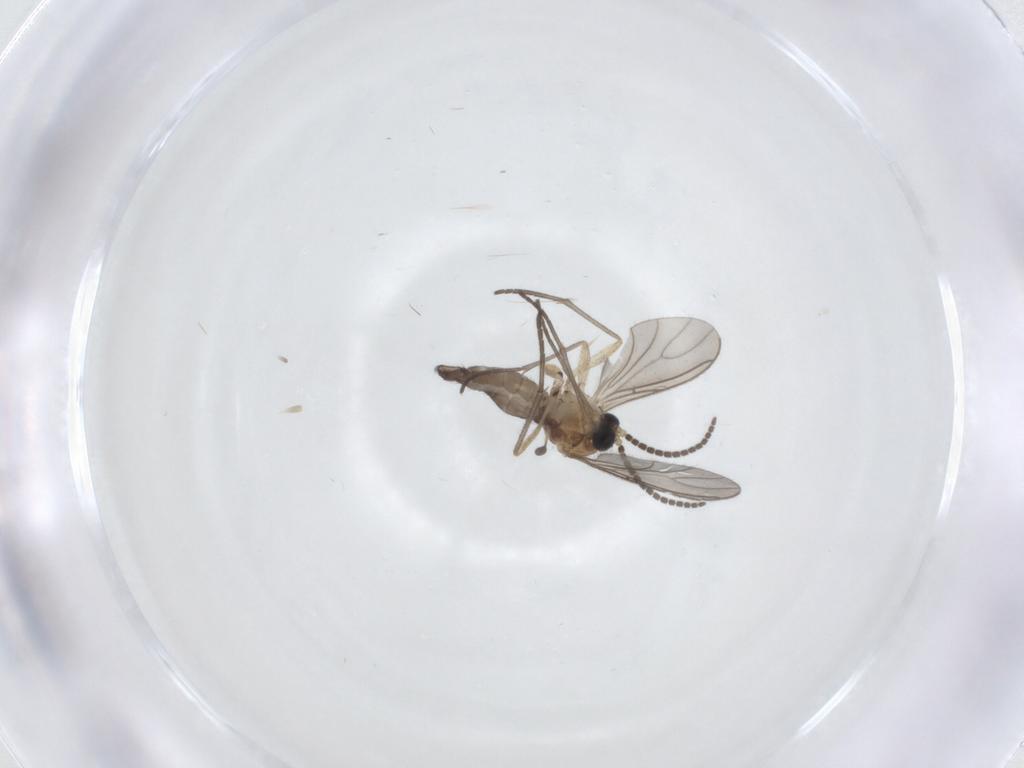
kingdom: Animalia
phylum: Arthropoda
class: Insecta
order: Diptera
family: Sciaridae
